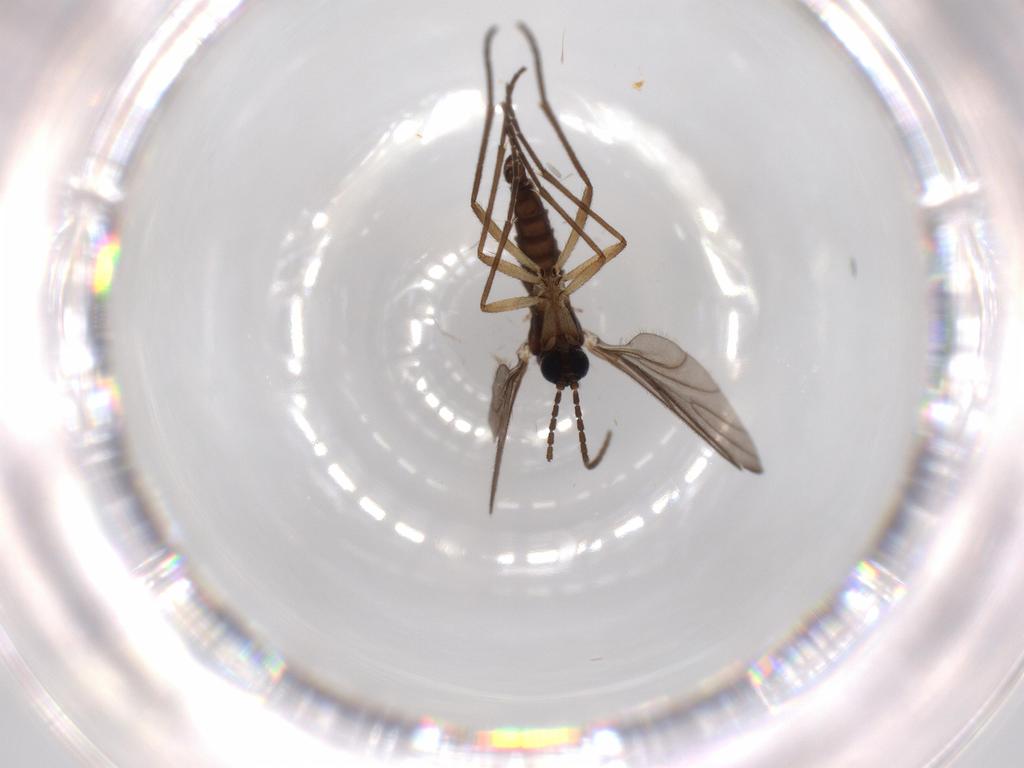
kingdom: Animalia
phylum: Arthropoda
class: Insecta
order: Diptera
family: Sciaridae
